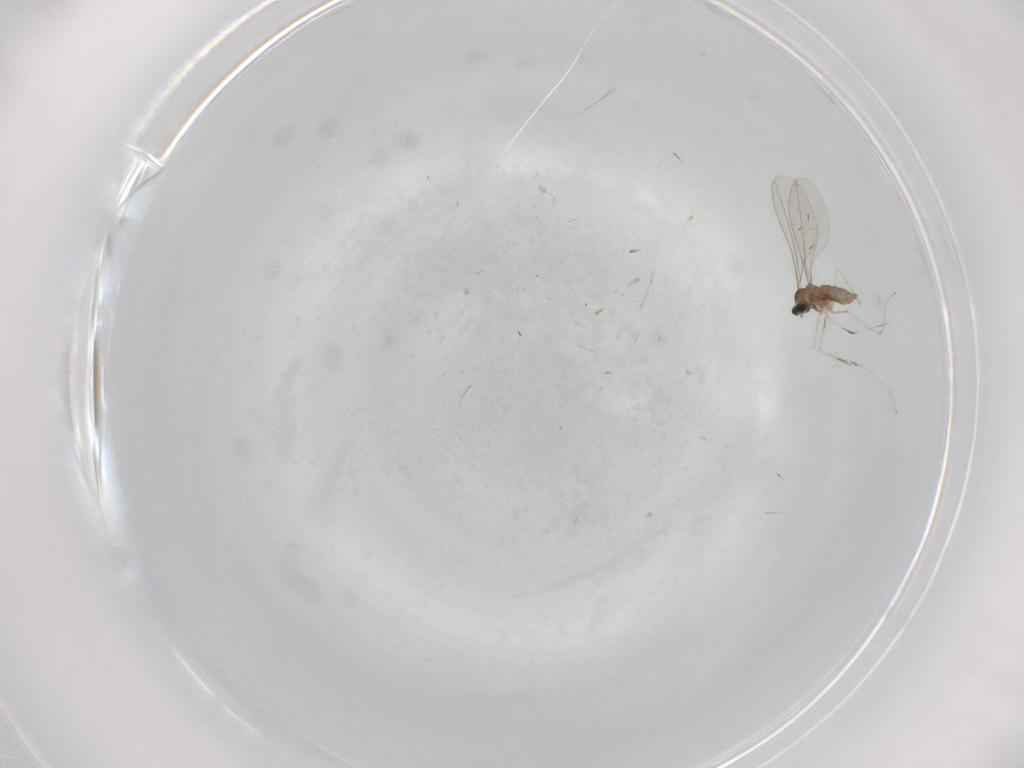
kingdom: Animalia
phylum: Arthropoda
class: Insecta
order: Diptera
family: Cecidomyiidae
